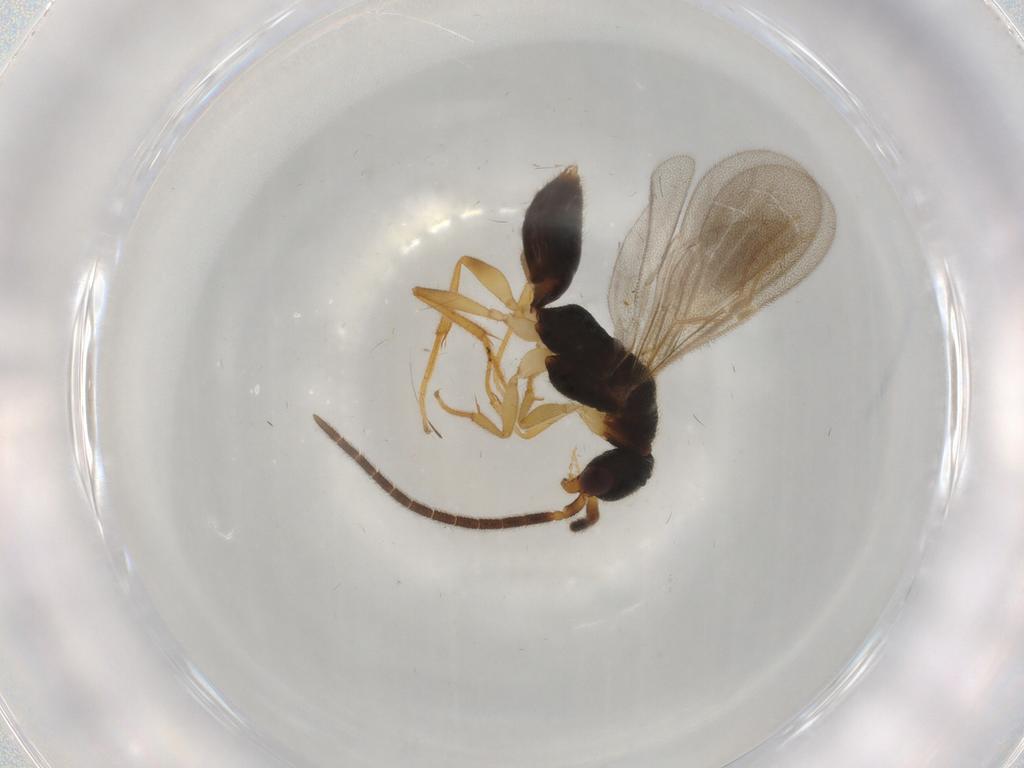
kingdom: Animalia
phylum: Arthropoda
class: Insecta
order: Hymenoptera
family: Bethylidae
